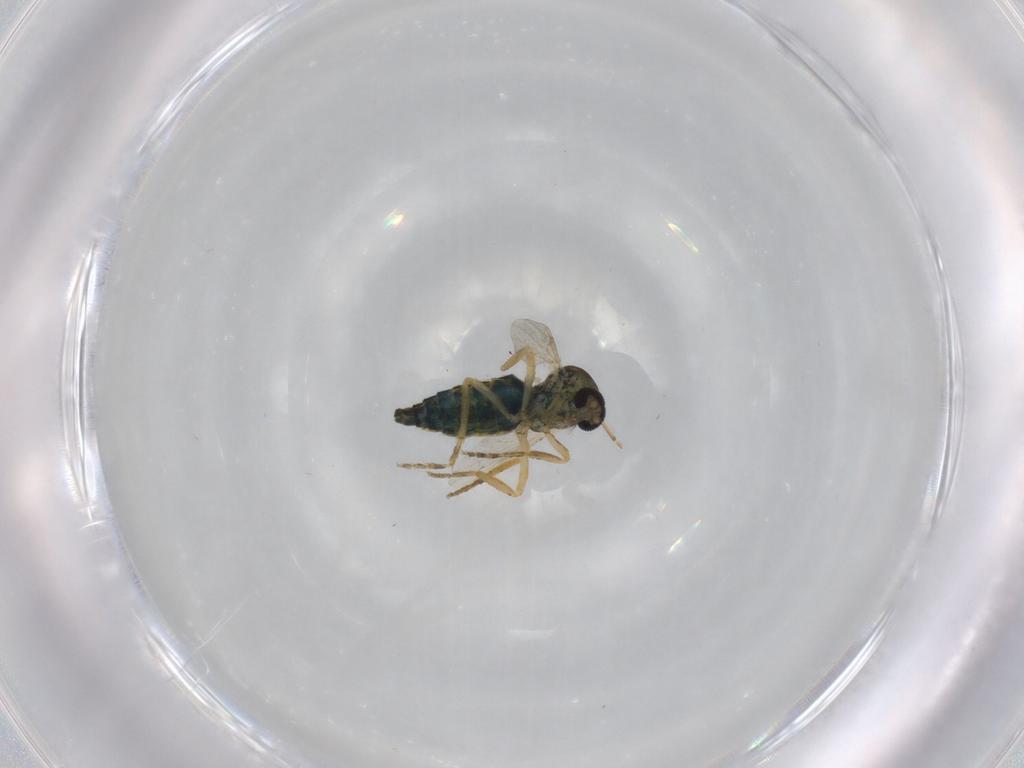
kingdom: Animalia
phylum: Arthropoda
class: Insecta
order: Diptera
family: Ceratopogonidae
